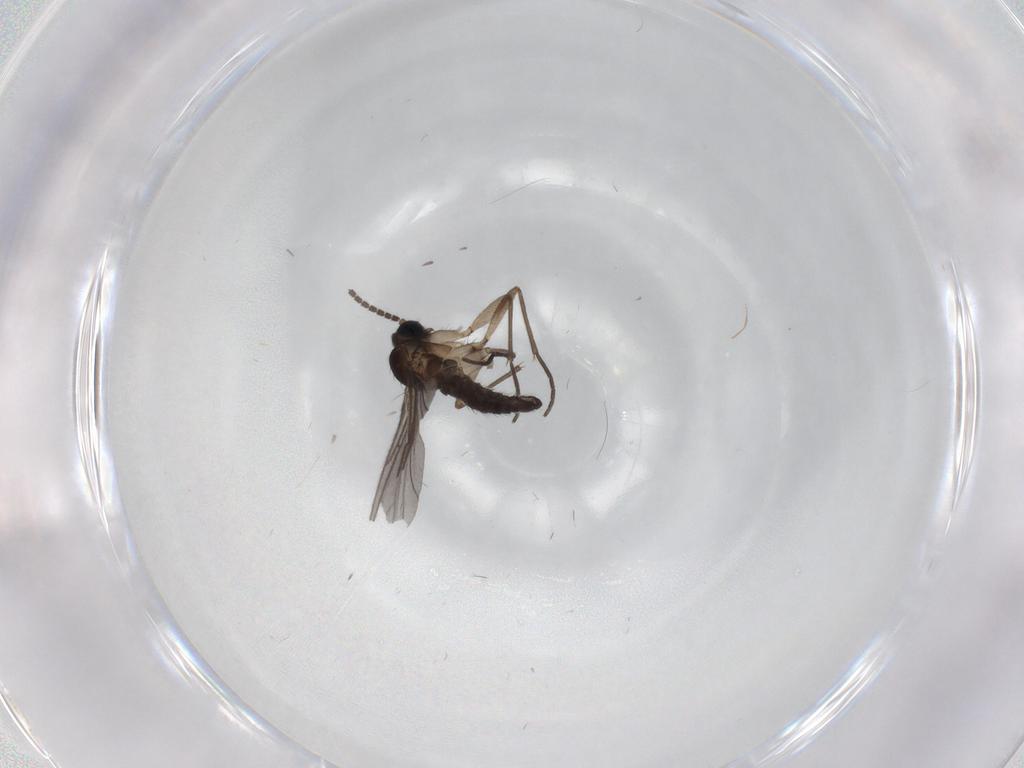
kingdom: Animalia
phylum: Arthropoda
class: Insecta
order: Diptera
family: Sciaridae
